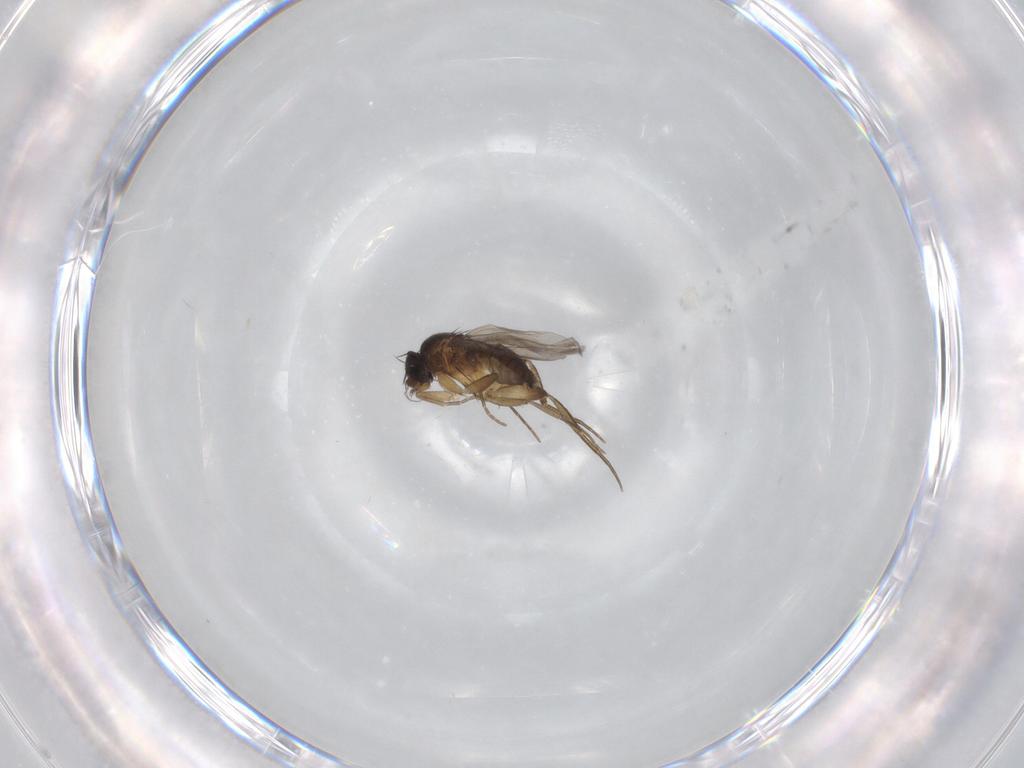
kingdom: Animalia
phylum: Arthropoda
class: Insecta
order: Diptera
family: Phoridae
